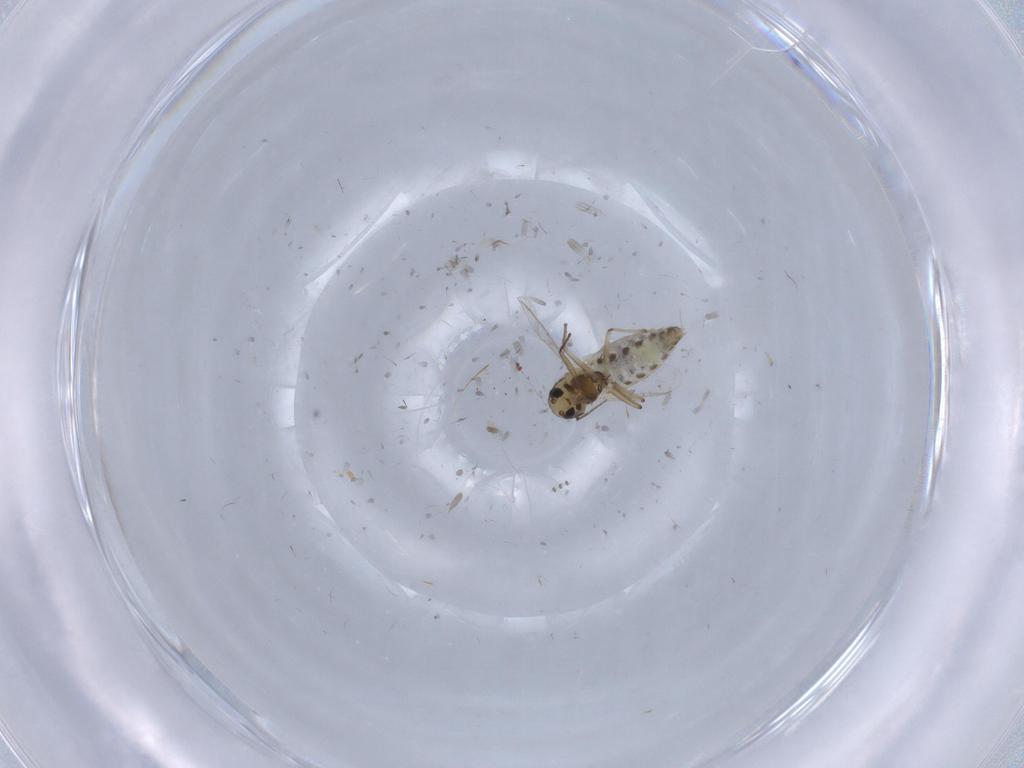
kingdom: Animalia
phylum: Arthropoda
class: Insecta
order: Diptera
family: Chironomidae
